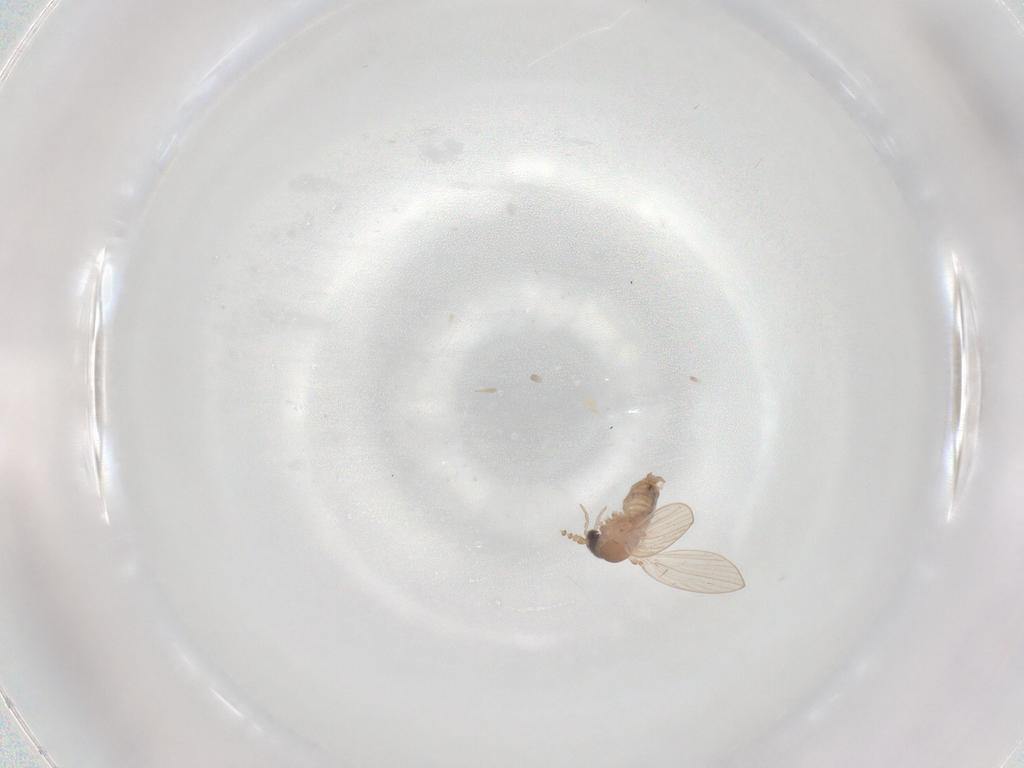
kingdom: Animalia
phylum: Arthropoda
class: Insecta
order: Diptera
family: Psychodidae
